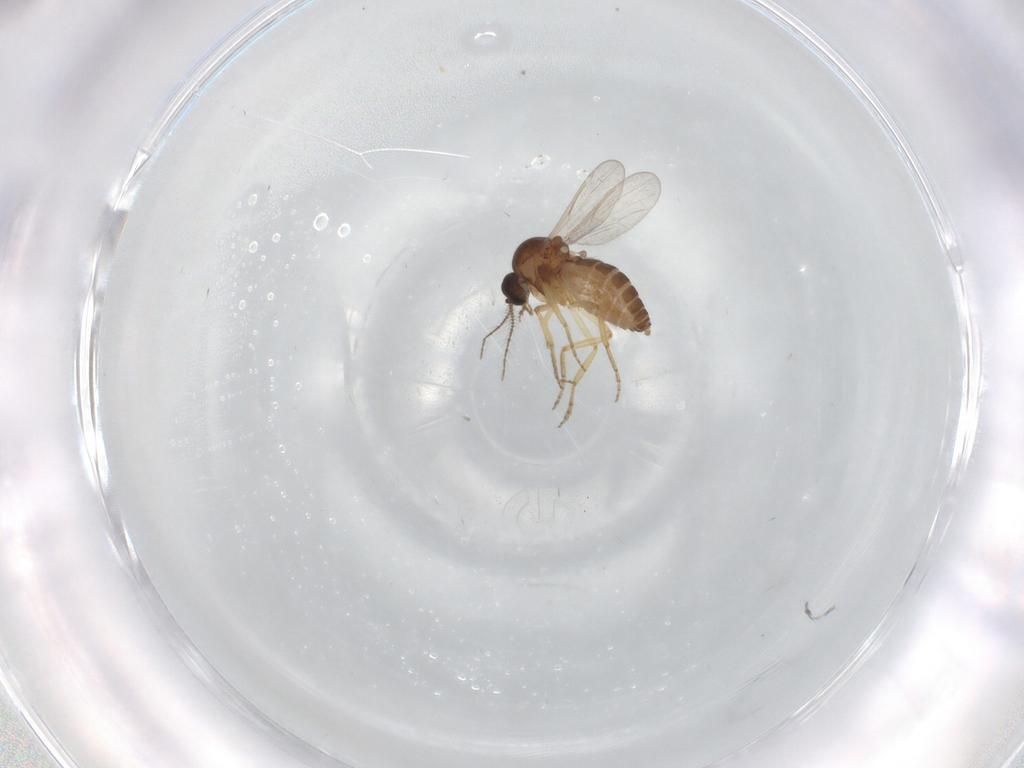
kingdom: Animalia
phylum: Arthropoda
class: Insecta
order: Diptera
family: Ceratopogonidae
